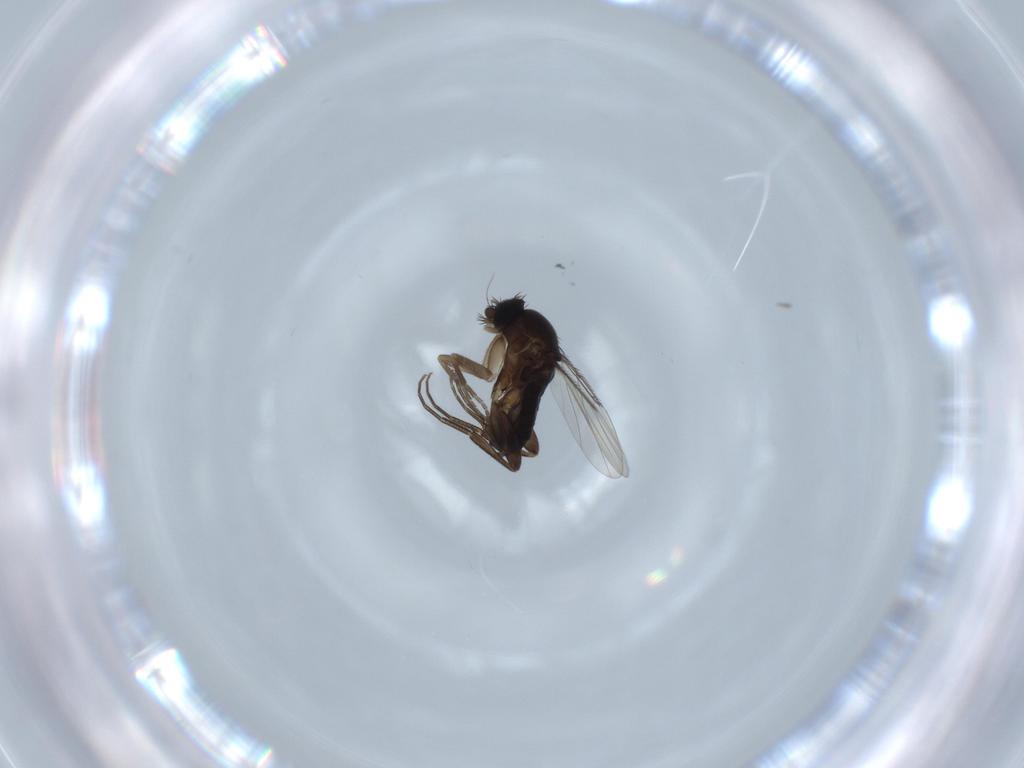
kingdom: Animalia
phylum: Arthropoda
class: Insecta
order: Diptera
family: Phoridae
